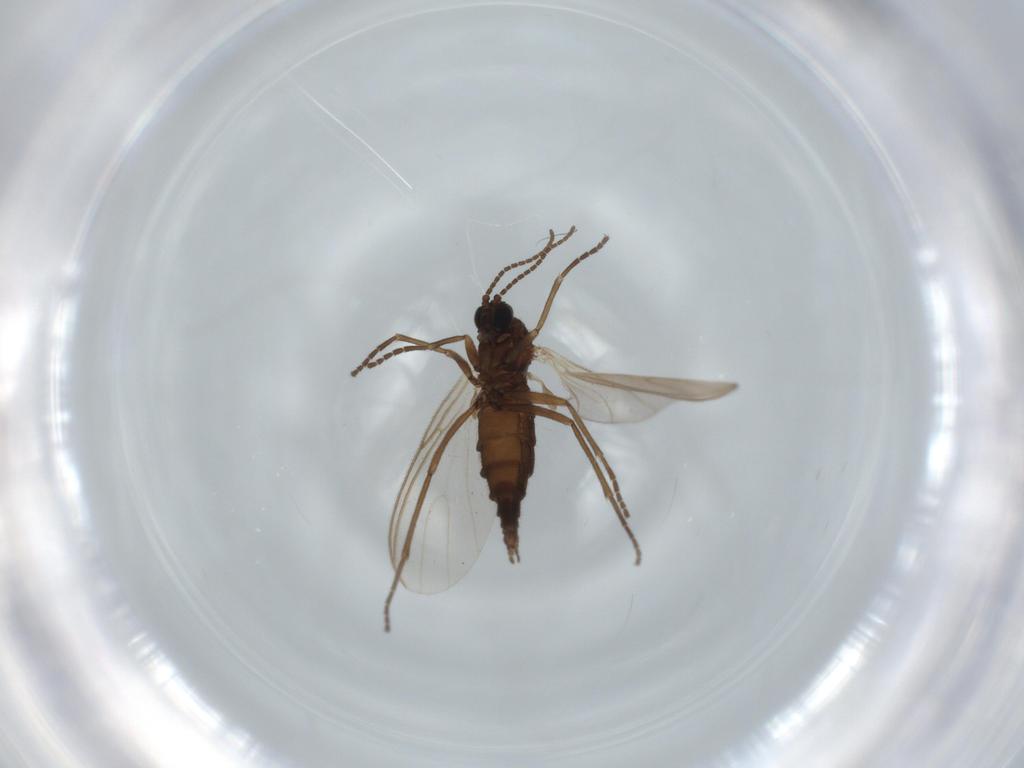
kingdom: Animalia
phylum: Arthropoda
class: Insecta
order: Diptera
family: Sciaridae
